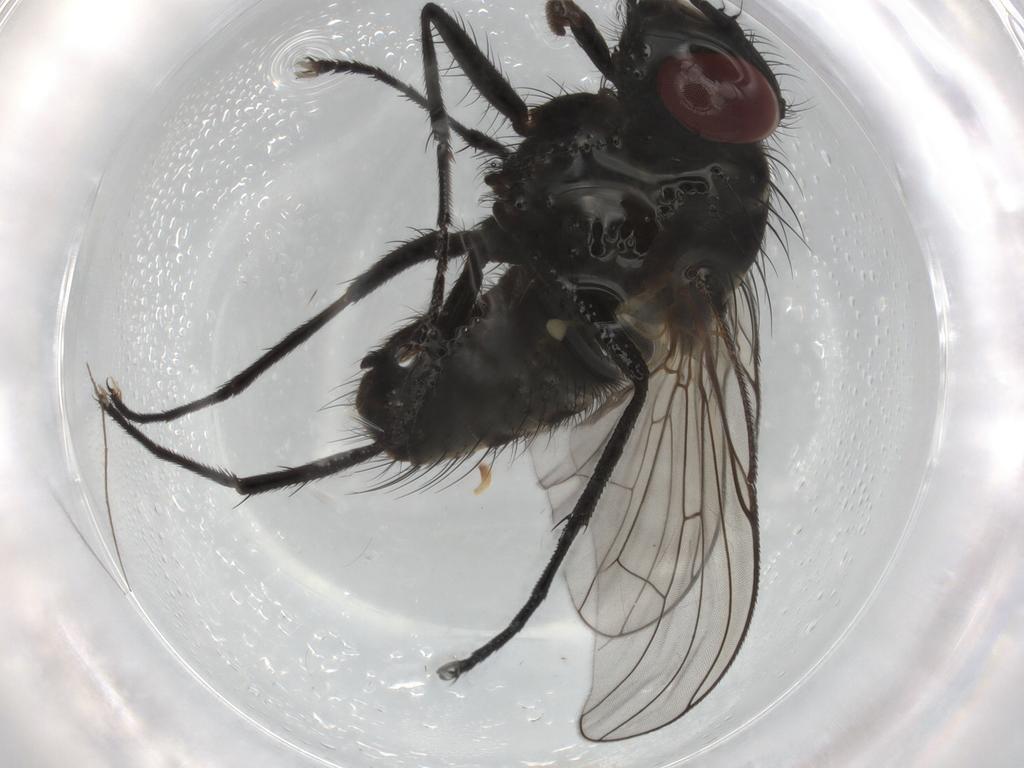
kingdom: Animalia
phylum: Arthropoda
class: Insecta
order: Diptera
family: Muscidae
